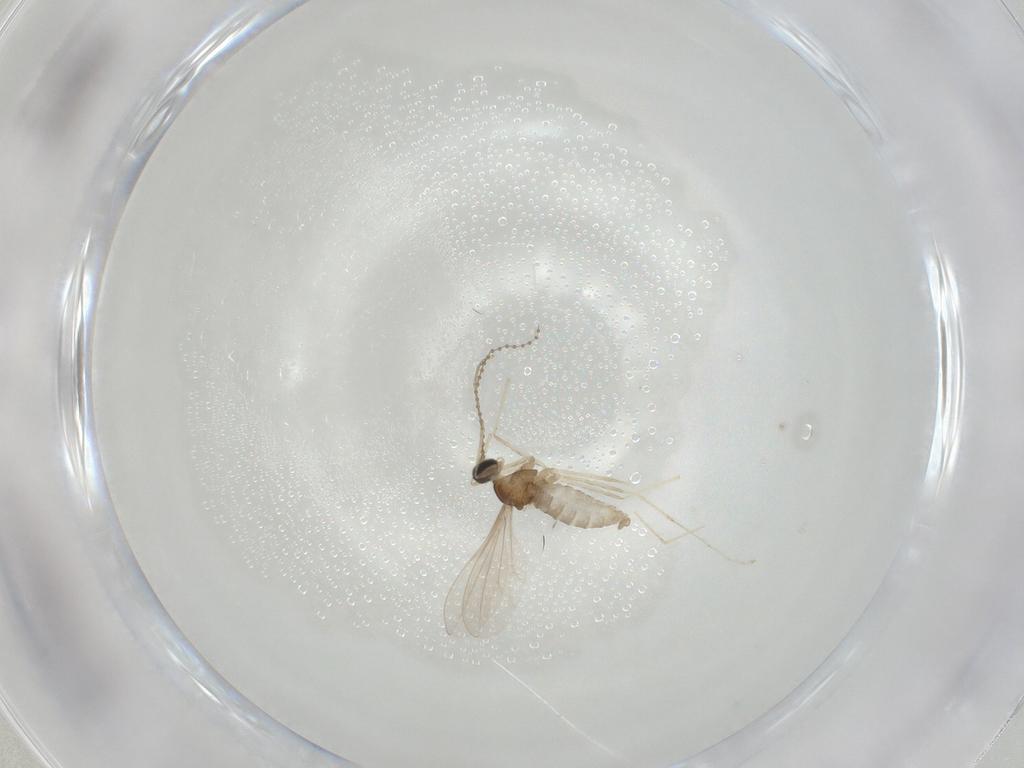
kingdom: Animalia
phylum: Arthropoda
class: Insecta
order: Diptera
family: Cecidomyiidae
